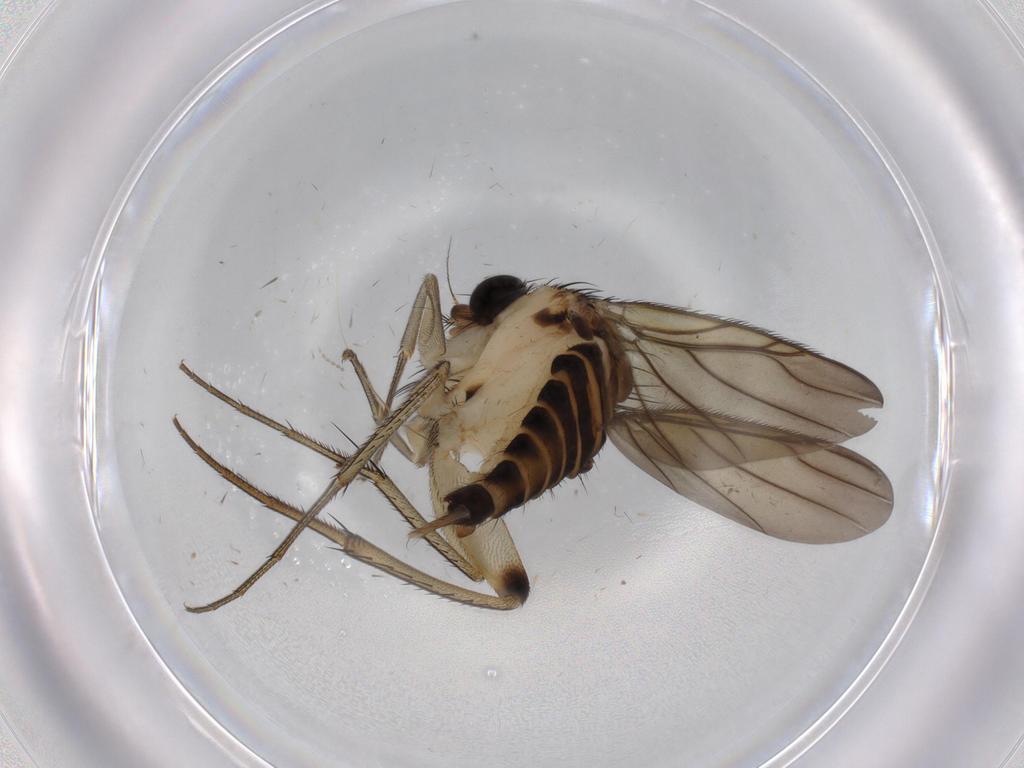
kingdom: Animalia
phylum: Arthropoda
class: Insecta
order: Diptera
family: Phoridae
